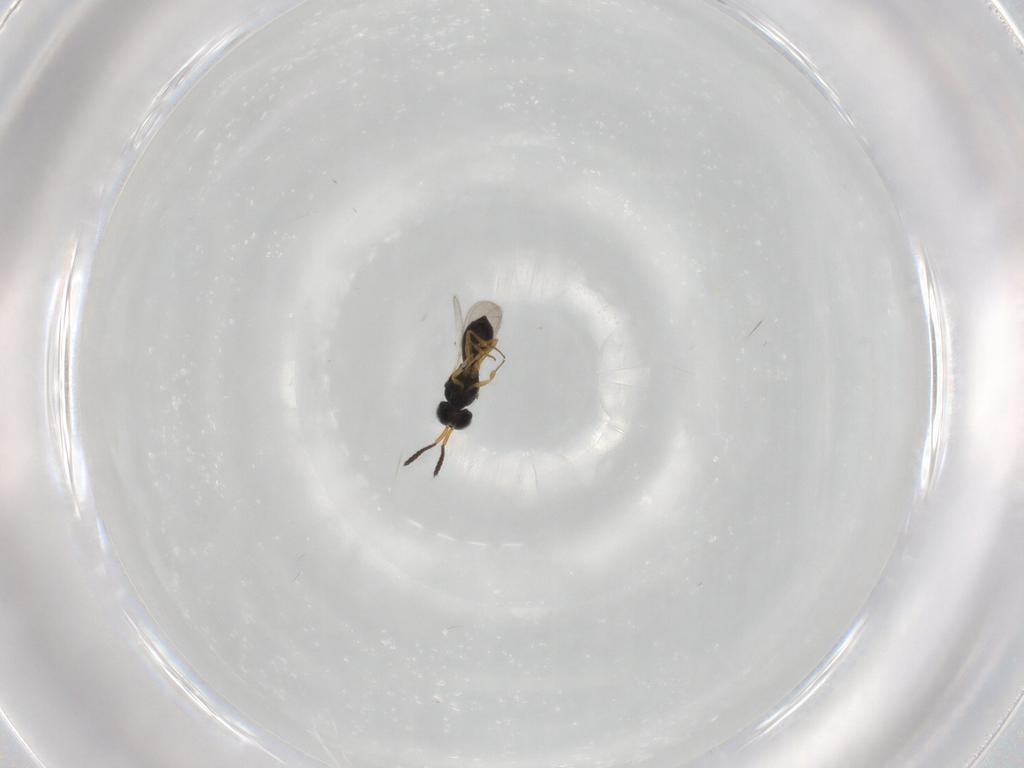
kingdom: Animalia
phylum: Arthropoda
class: Insecta
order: Hymenoptera
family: Scelionidae
